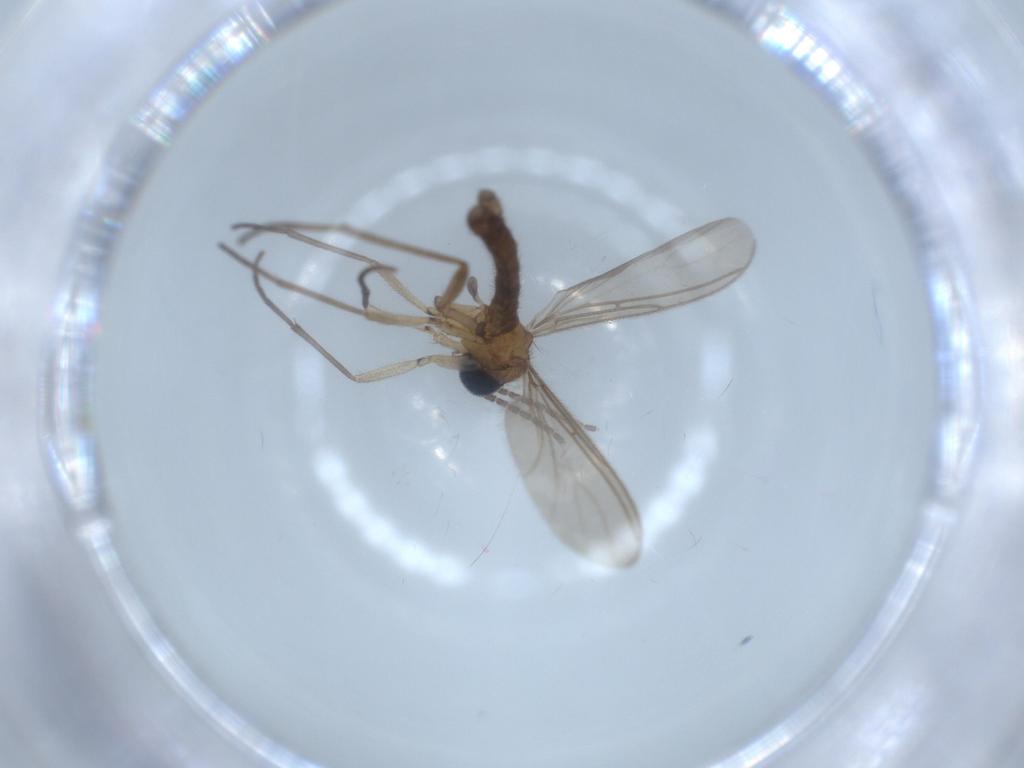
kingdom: Animalia
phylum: Arthropoda
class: Insecta
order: Diptera
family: Sciaridae
